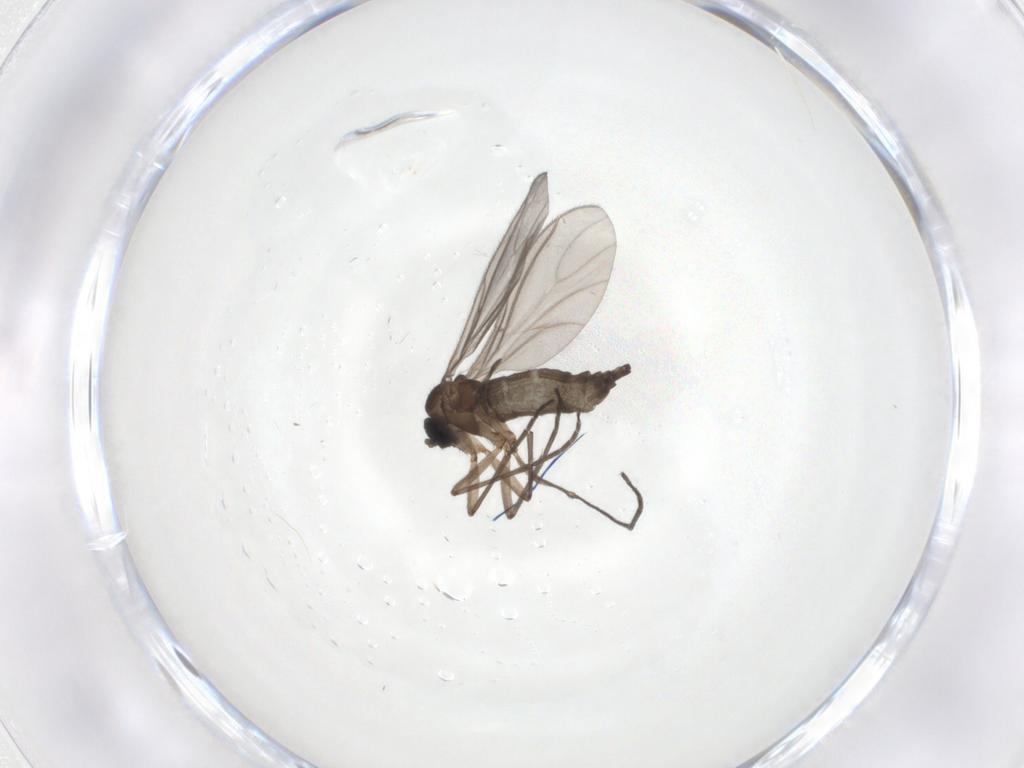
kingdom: Animalia
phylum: Arthropoda
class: Insecta
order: Diptera
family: Sciaridae
